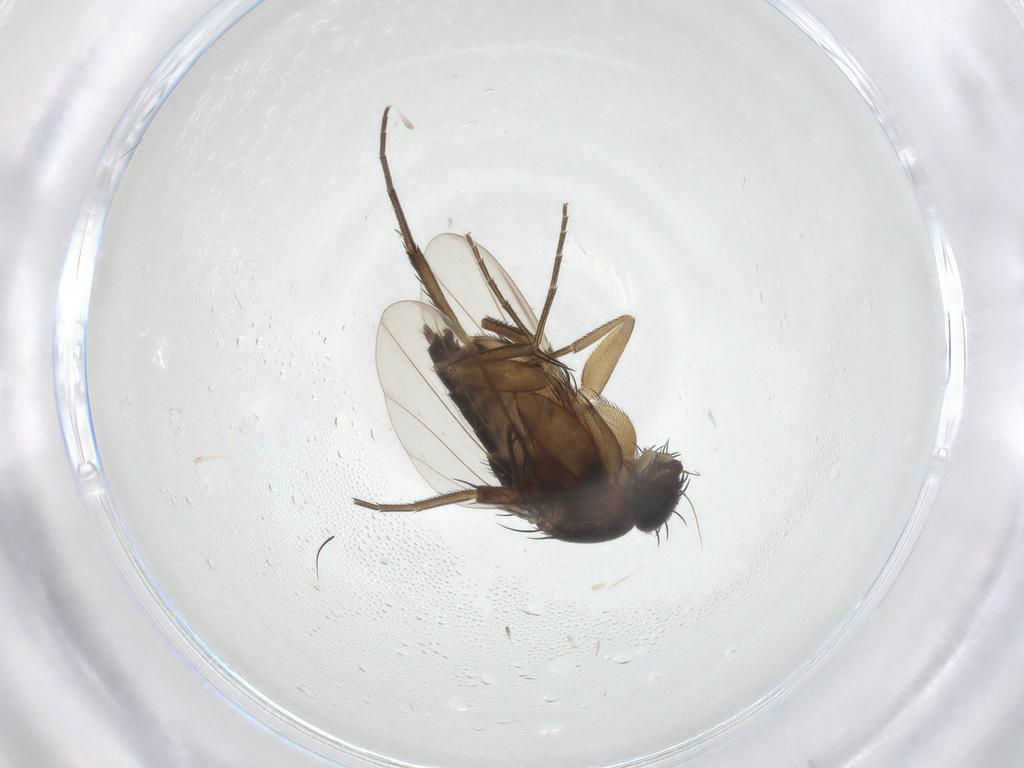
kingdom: Animalia
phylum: Arthropoda
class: Insecta
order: Diptera
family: Phoridae
